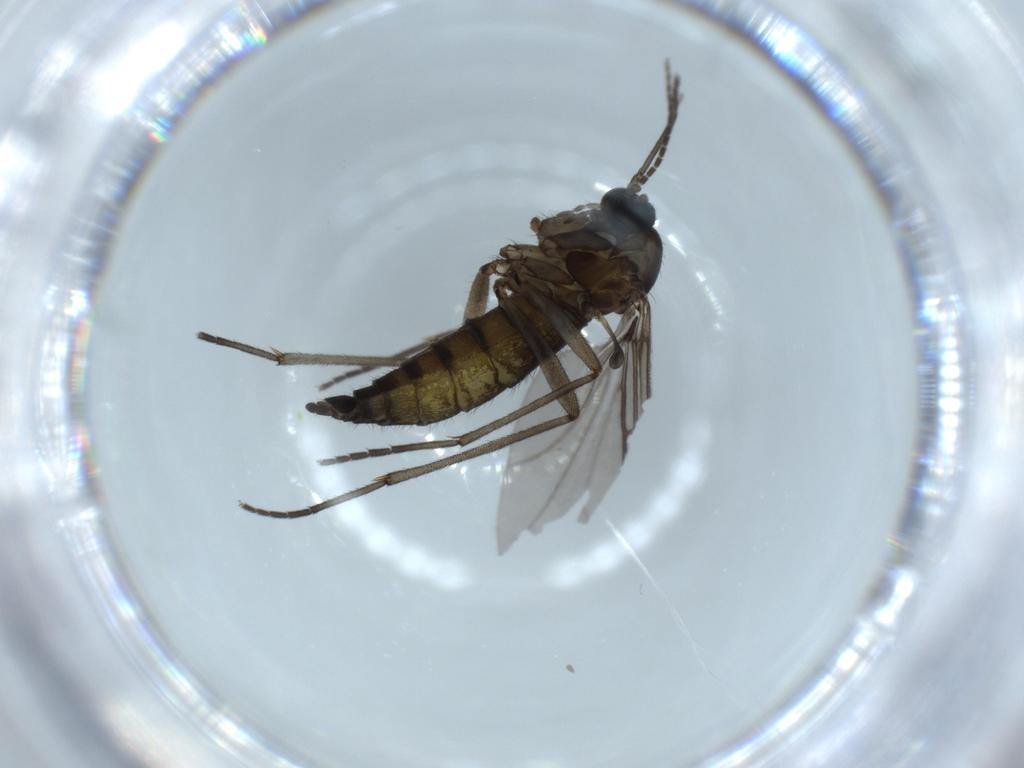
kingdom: Animalia
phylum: Arthropoda
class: Insecta
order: Diptera
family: Sciaridae
